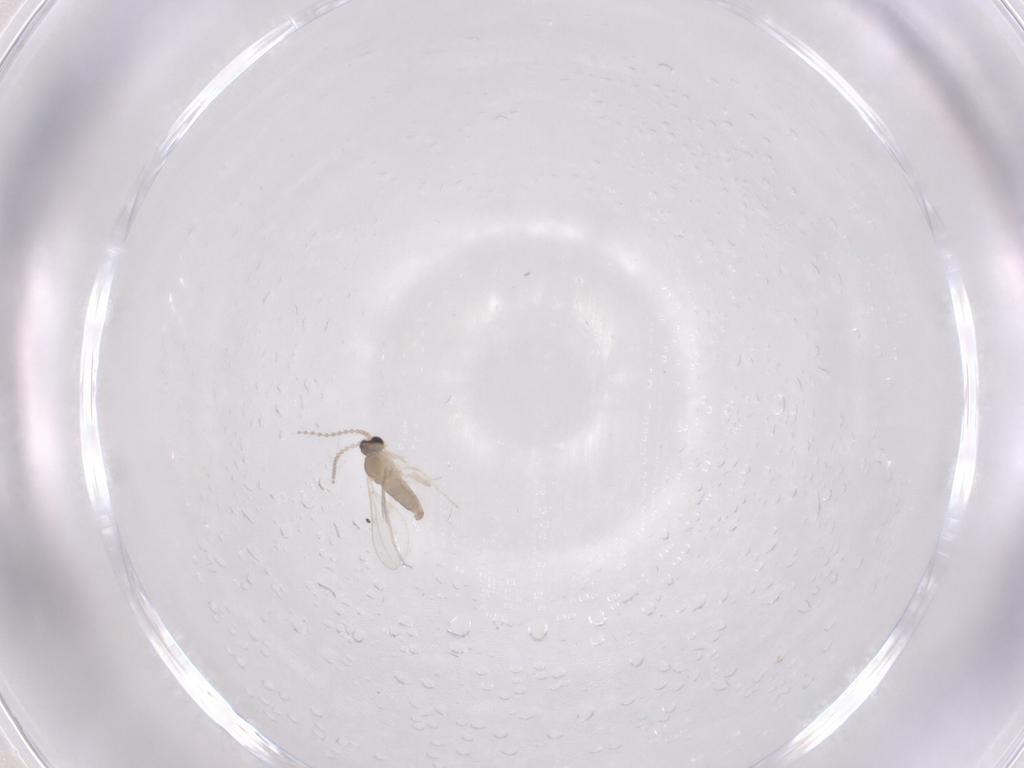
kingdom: Animalia
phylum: Arthropoda
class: Insecta
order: Diptera
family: Cecidomyiidae
